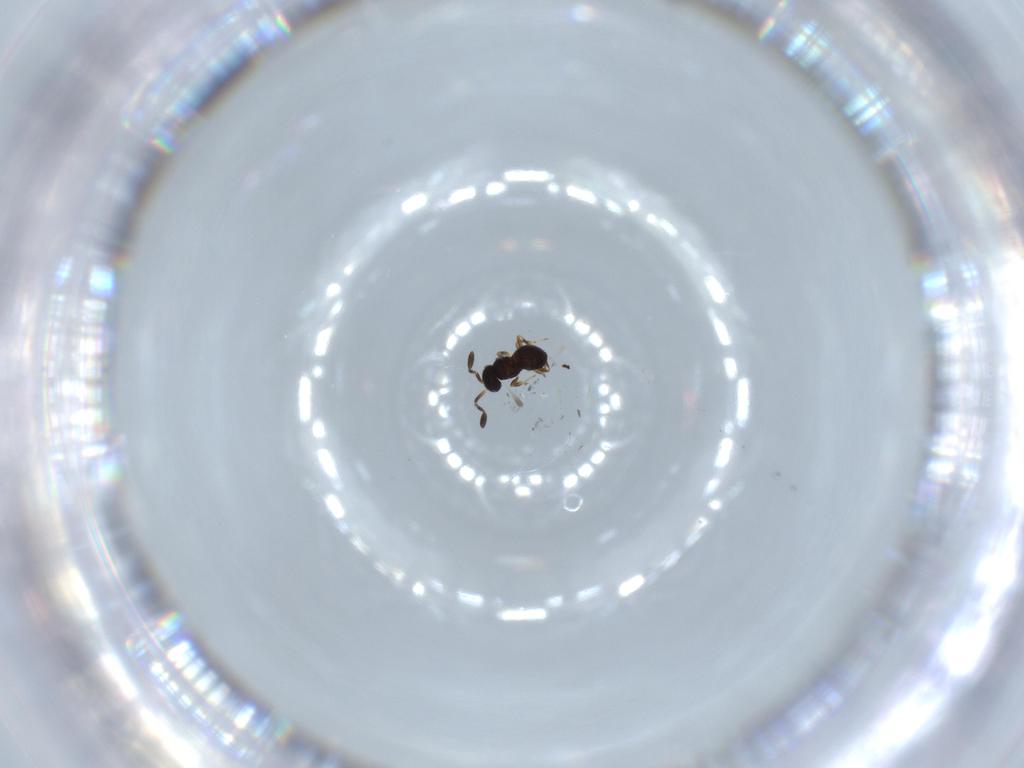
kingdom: Animalia
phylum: Arthropoda
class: Insecta
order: Hymenoptera
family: Scelionidae
